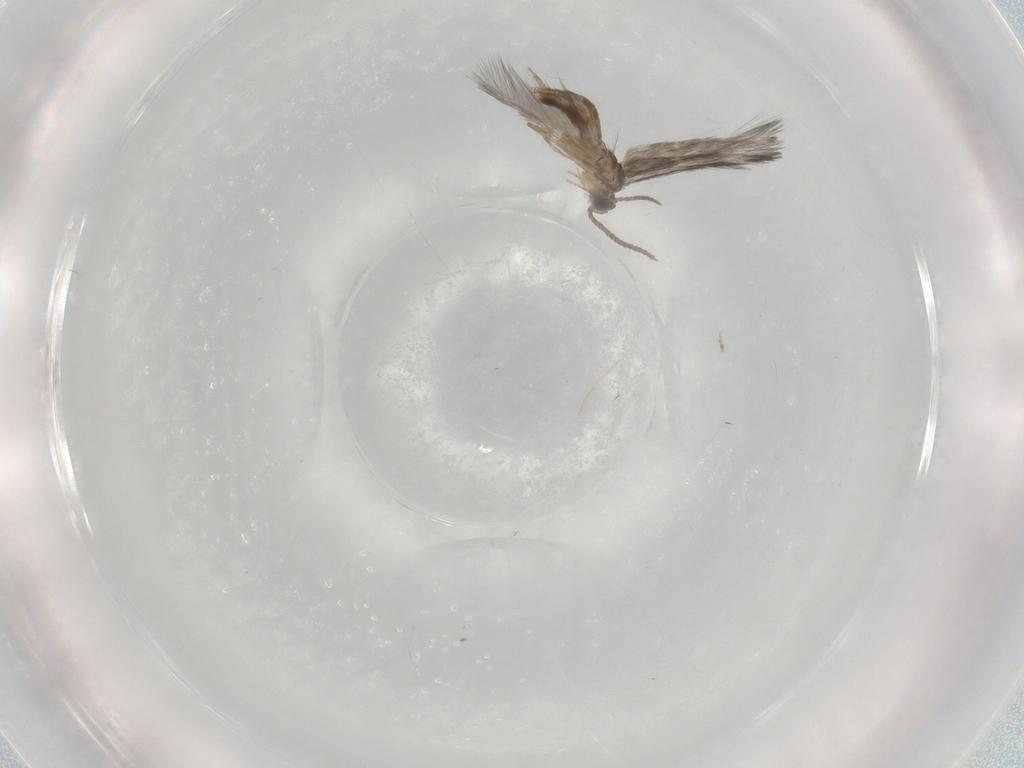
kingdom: Animalia
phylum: Arthropoda
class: Insecta
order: Trichoptera
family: Hydroptilidae
